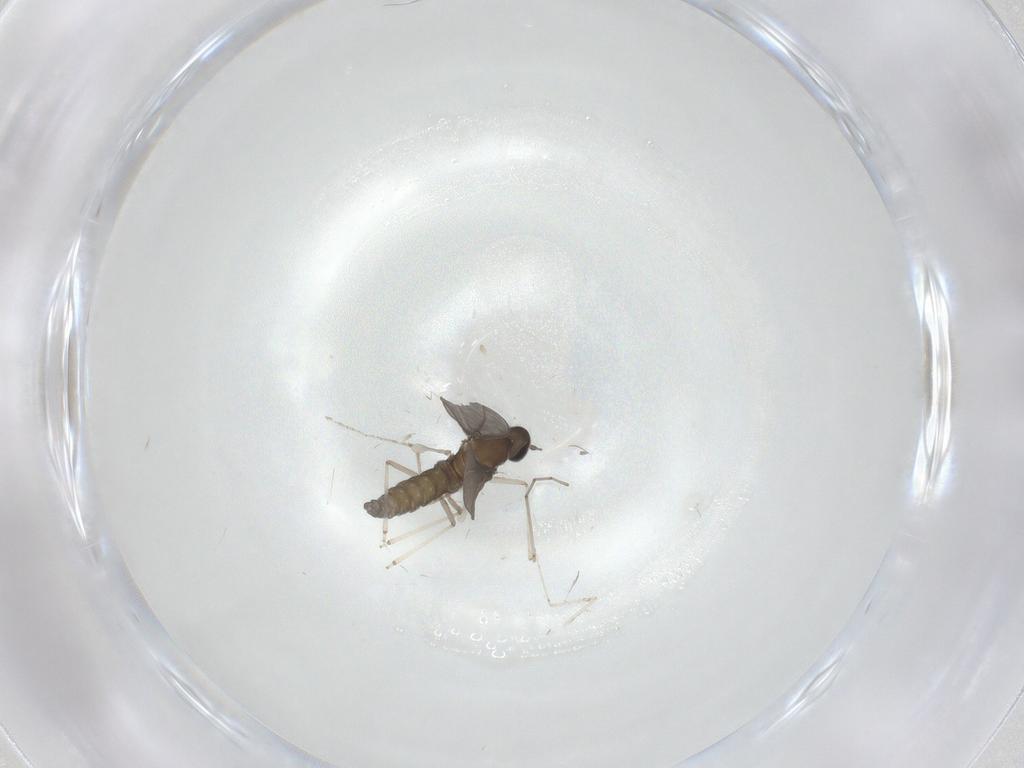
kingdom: Animalia
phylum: Arthropoda
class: Insecta
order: Diptera
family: Cecidomyiidae
